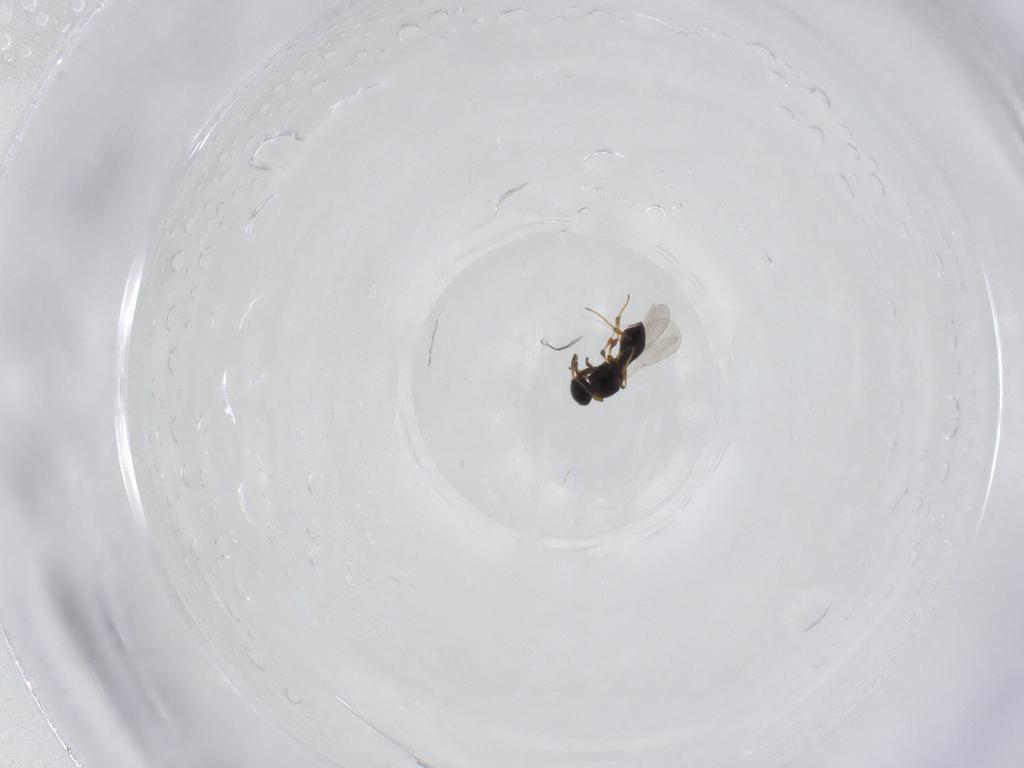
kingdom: Animalia
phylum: Arthropoda
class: Insecta
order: Hymenoptera
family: Platygastridae
